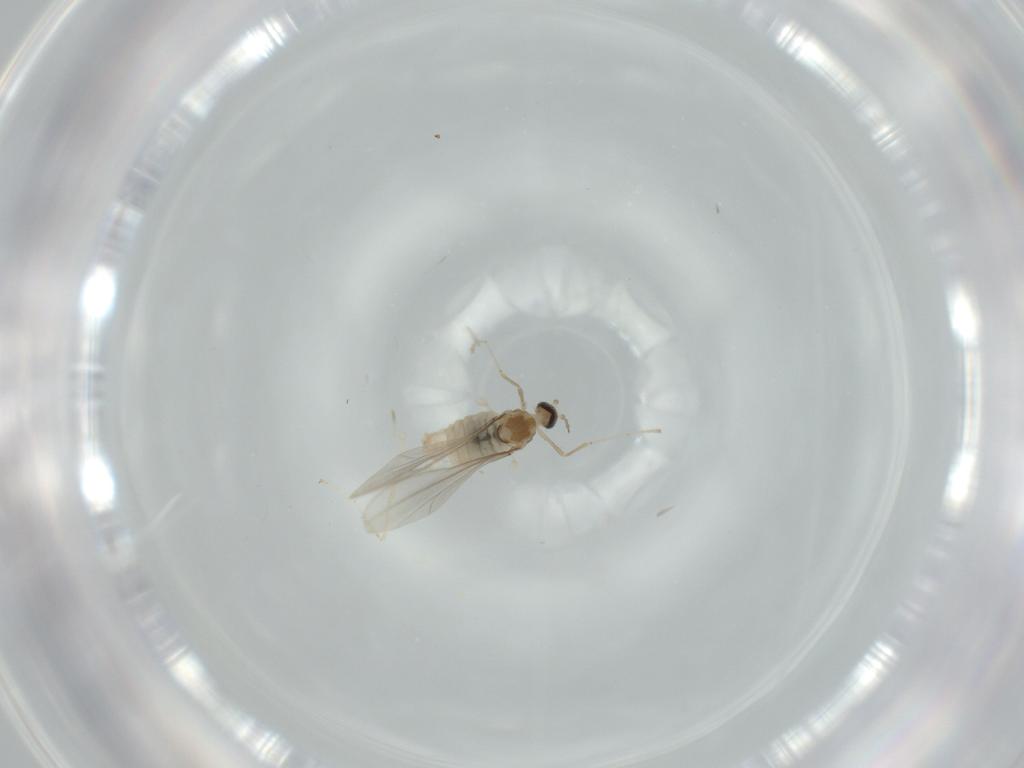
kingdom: Animalia
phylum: Arthropoda
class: Insecta
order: Diptera
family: Cecidomyiidae
